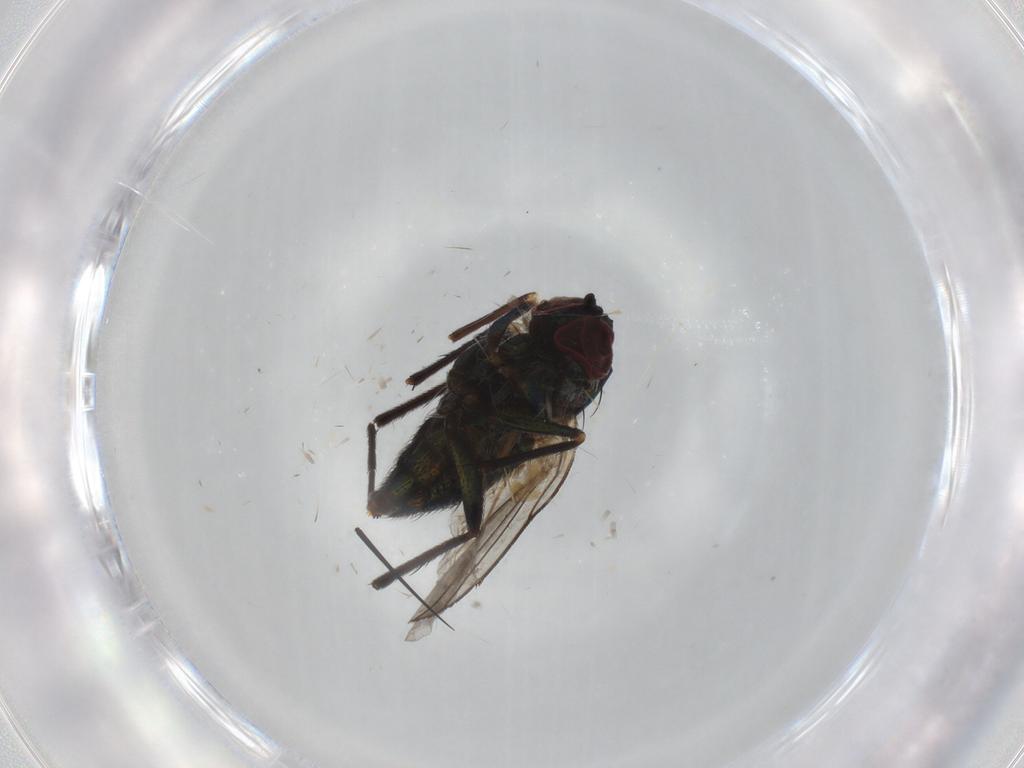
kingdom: Animalia
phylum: Arthropoda
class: Insecta
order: Diptera
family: Dolichopodidae
